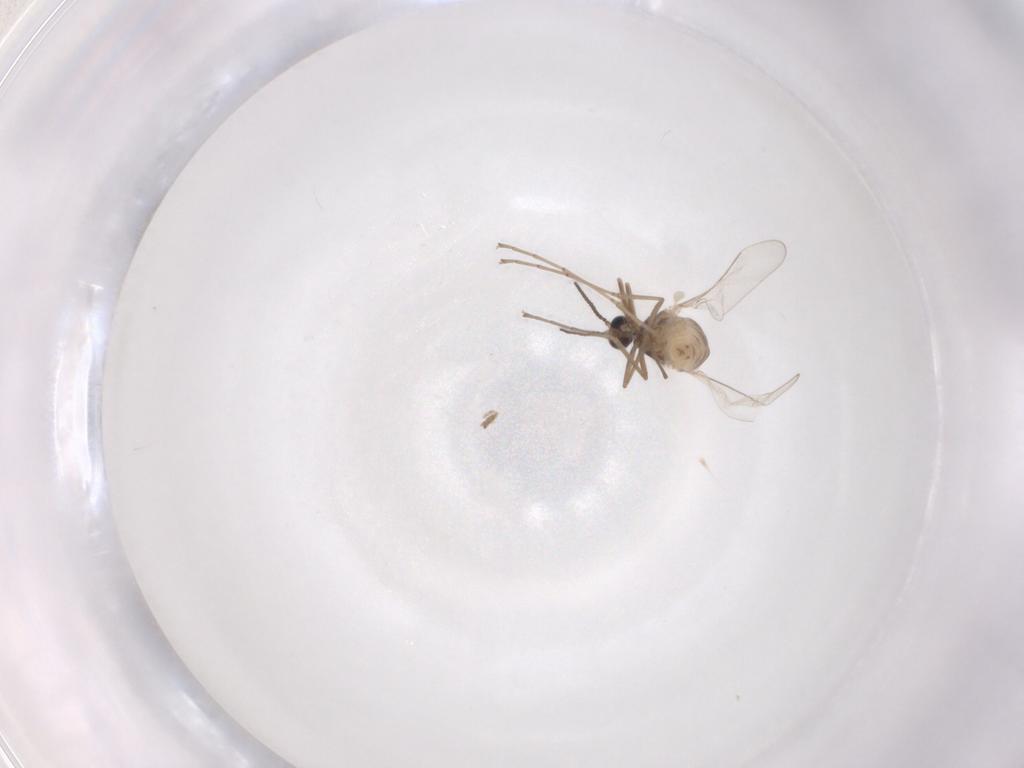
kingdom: Animalia
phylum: Arthropoda
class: Insecta
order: Diptera
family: Cecidomyiidae
